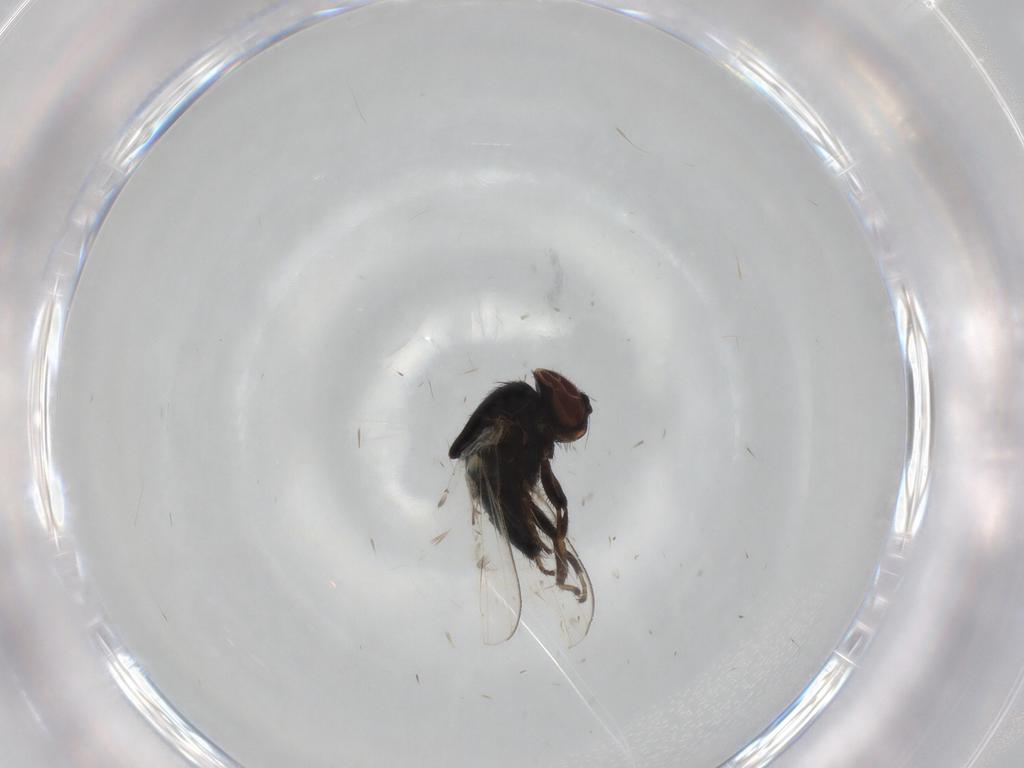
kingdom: Animalia
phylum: Arthropoda
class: Insecta
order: Diptera
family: Milichiidae
